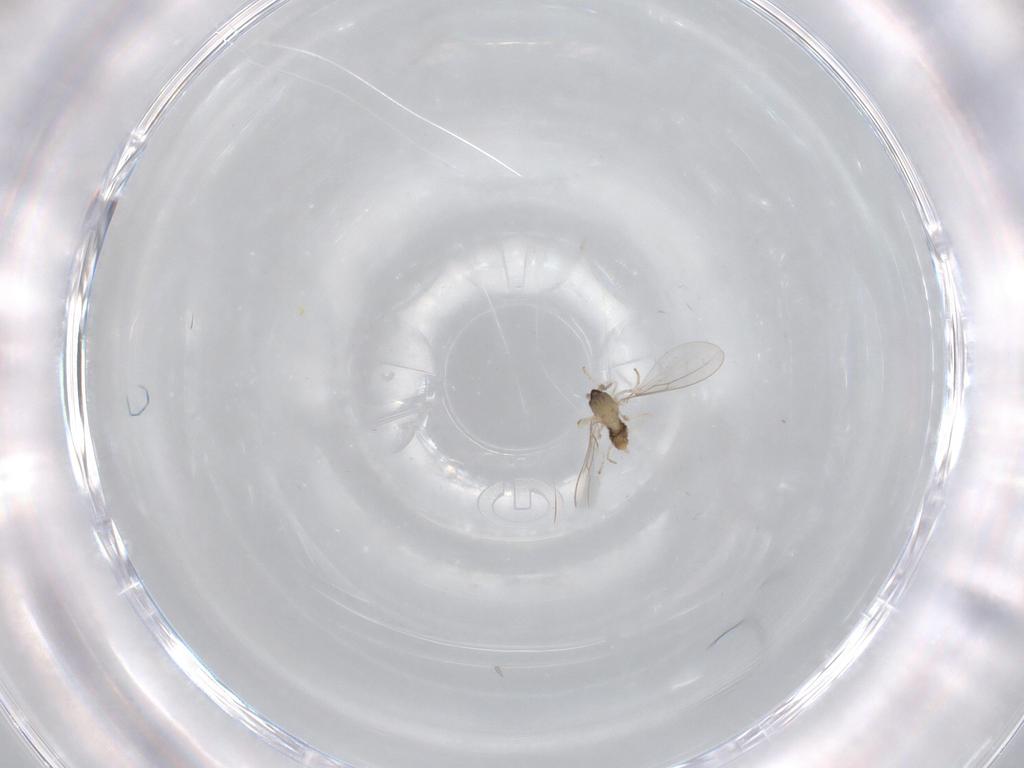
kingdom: Animalia
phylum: Arthropoda
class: Insecta
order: Diptera
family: Cecidomyiidae
